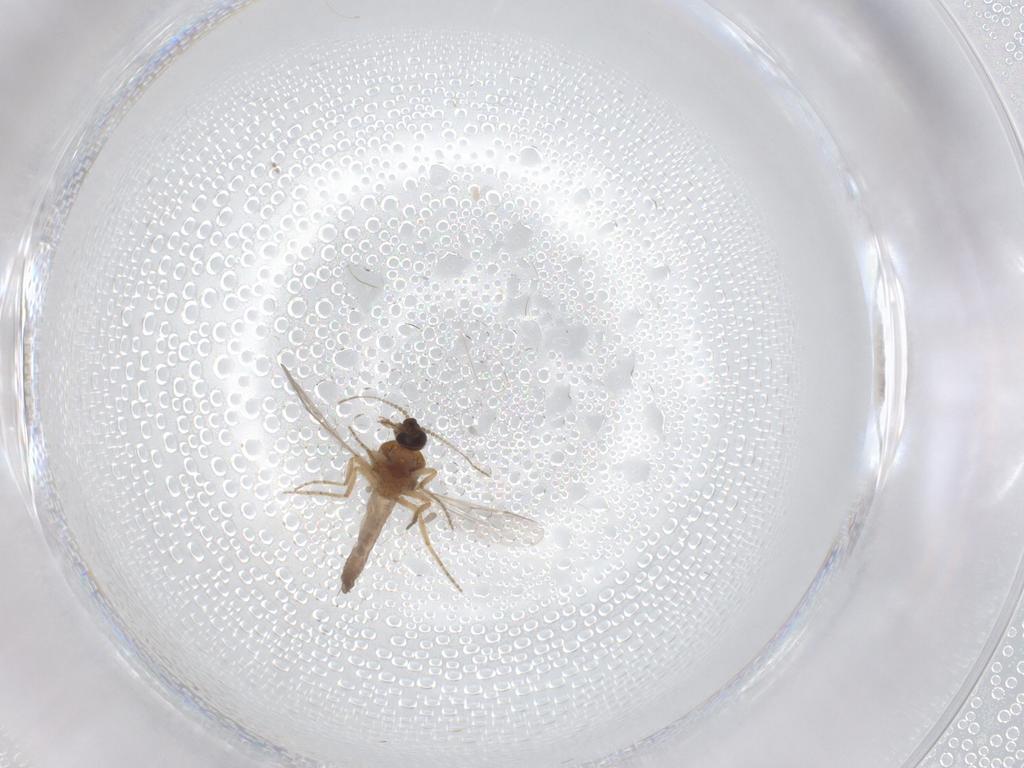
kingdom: Animalia
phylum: Arthropoda
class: Insecta
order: Diptera
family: Ceratopogonidae
